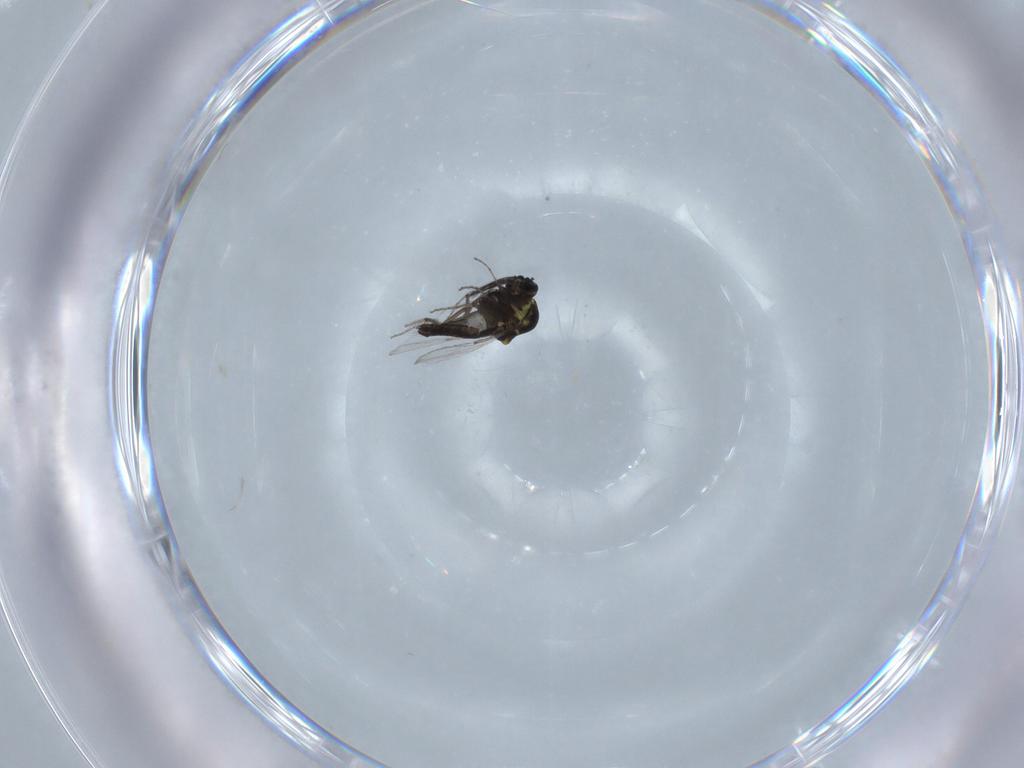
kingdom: Animalia
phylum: Arthropoda
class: Insecta
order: Diptera
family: Ceratopogonidae
